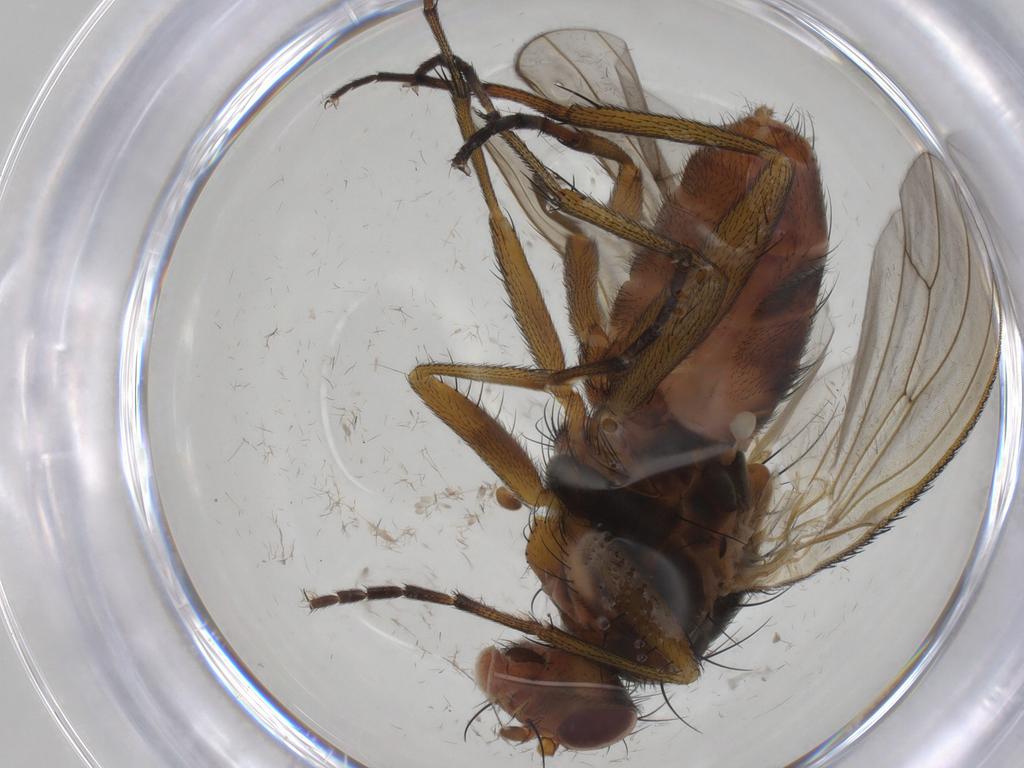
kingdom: Animalia
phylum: Arthropoda
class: Insecta
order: Diptera
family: Heleomyzidae
